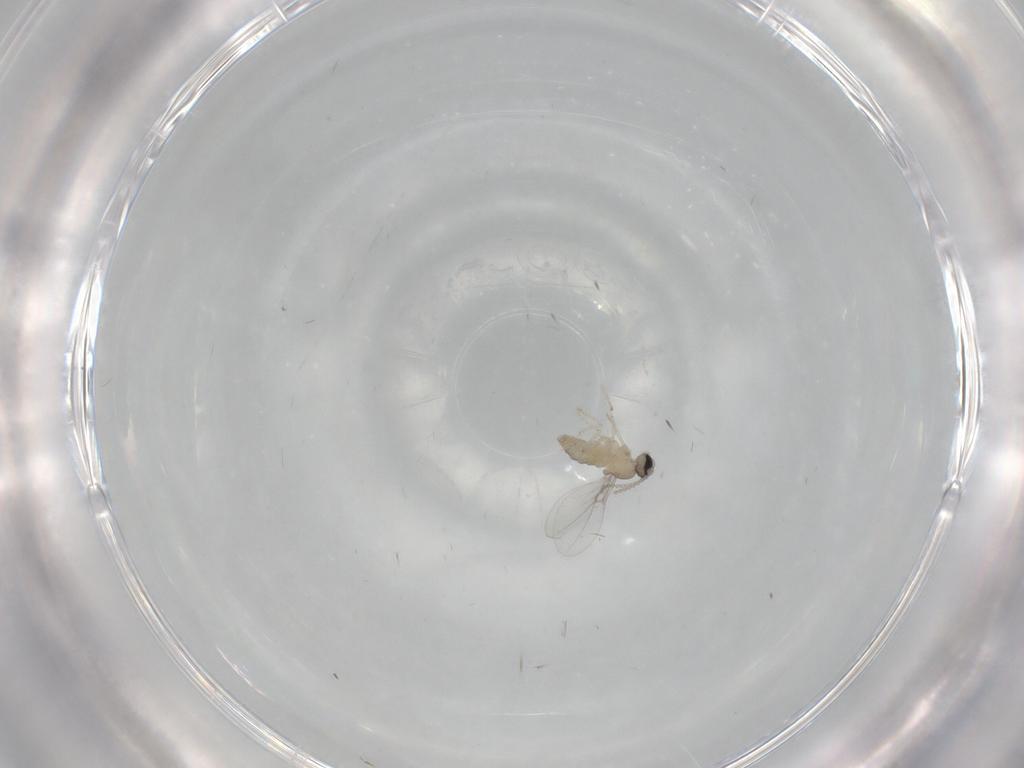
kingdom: Animalia
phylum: Arthropoda
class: Insecta
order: Diptera
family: Cecidomyiidae
